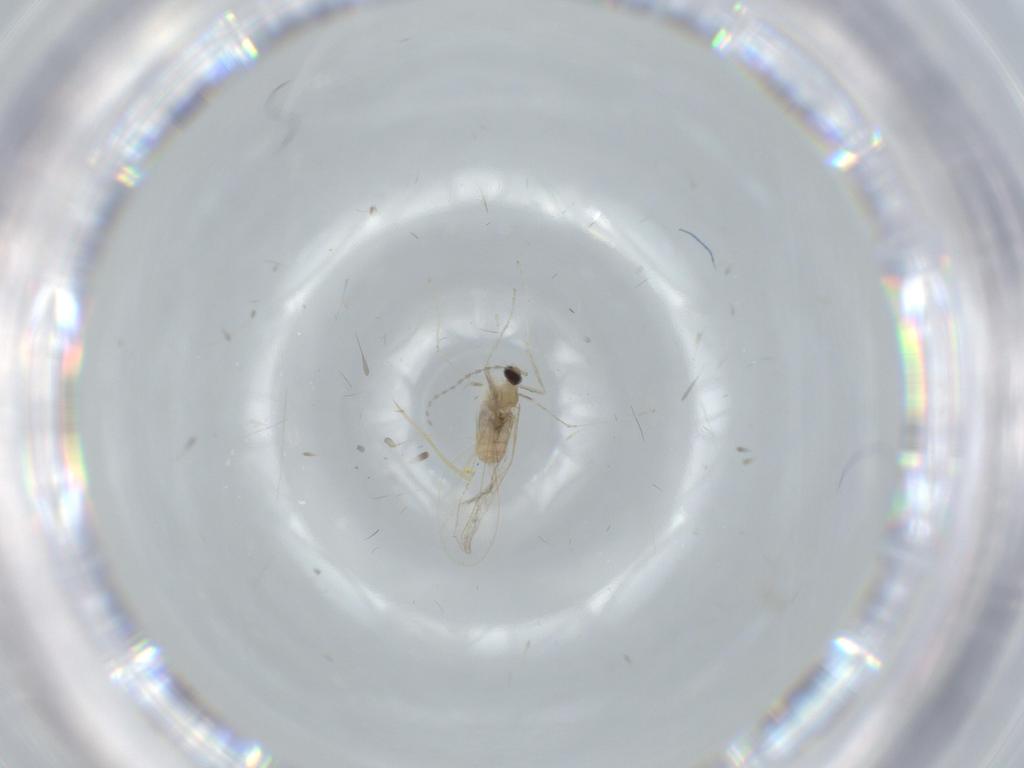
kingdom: Animalia
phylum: Arthropoda
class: Insecta
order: Diptera
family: Cecidomyiidae
